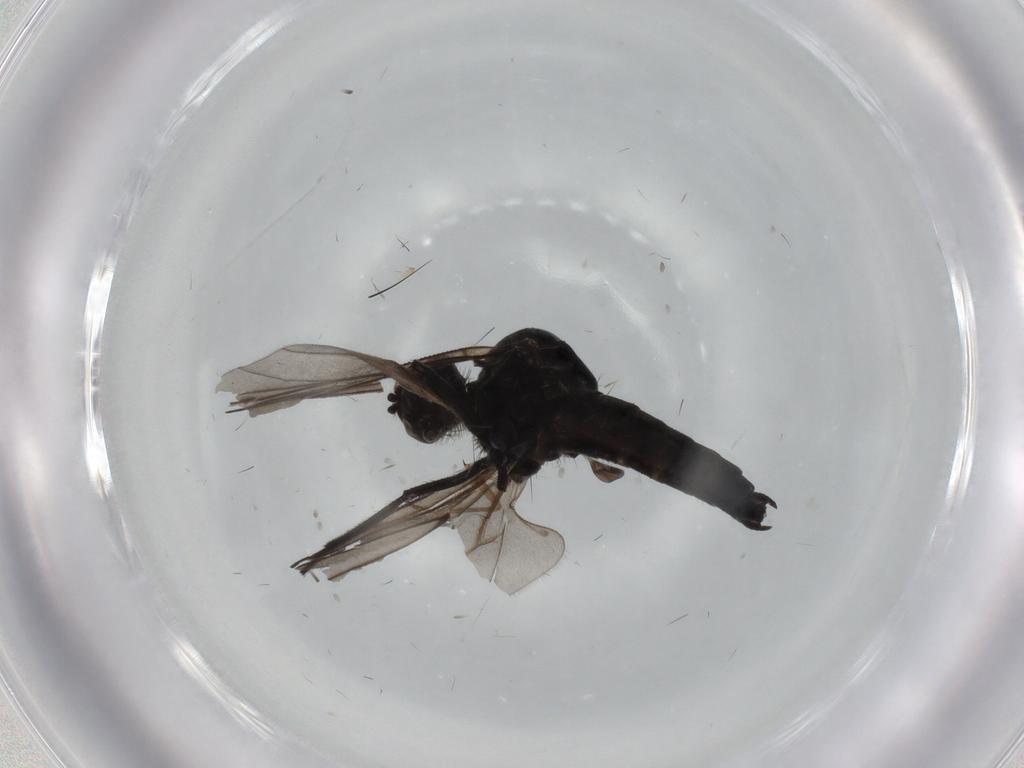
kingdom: Animalia
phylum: Arthropoda
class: Insecta
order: Diptera
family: Hybotidae
